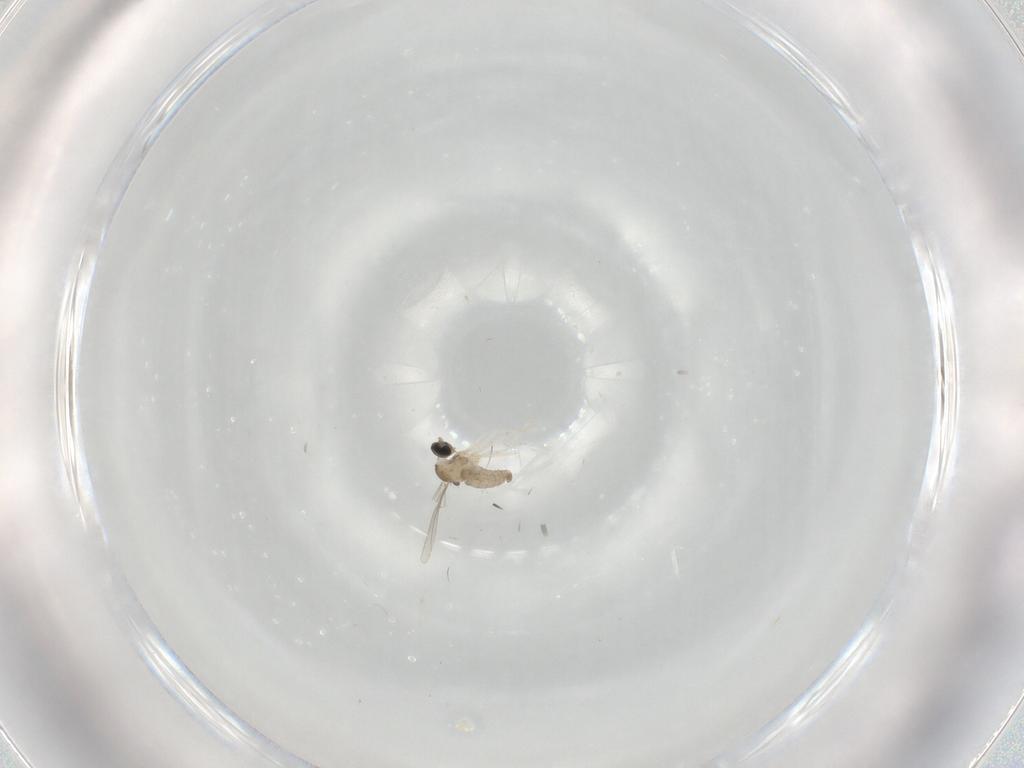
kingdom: Animalia
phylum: Arthropoda
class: Insecta
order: Diptera
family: Cecidomyiidae
